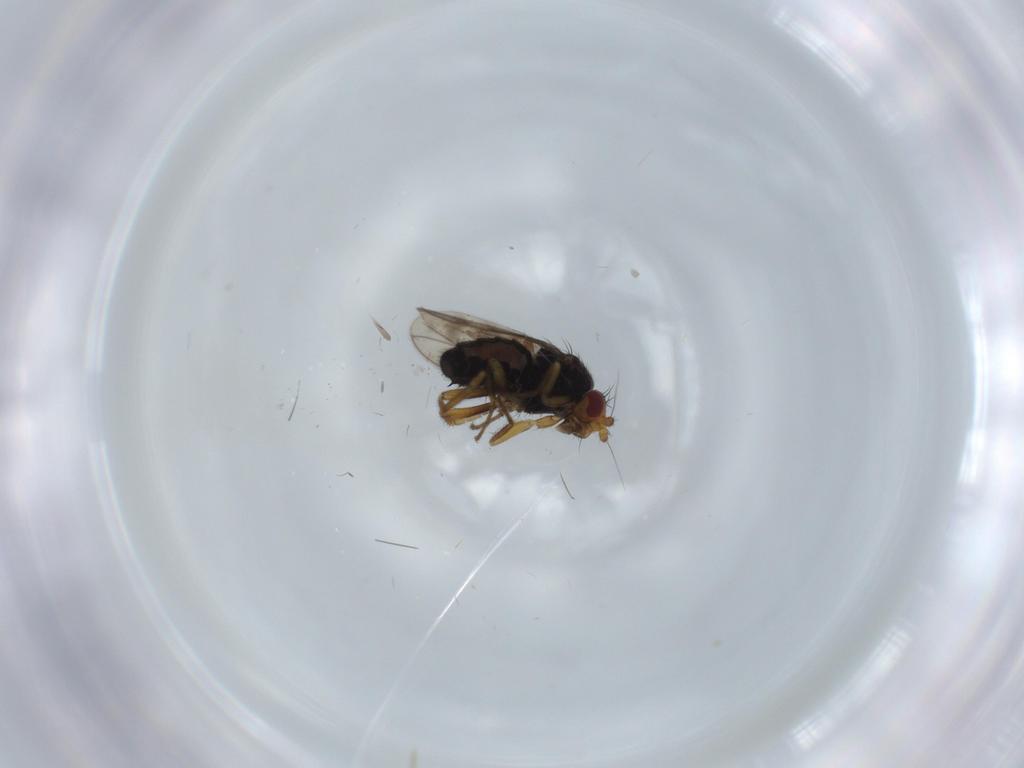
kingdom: Animalia
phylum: Arthropoda
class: Insecta
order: Diptera
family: Sphaeroceridae
